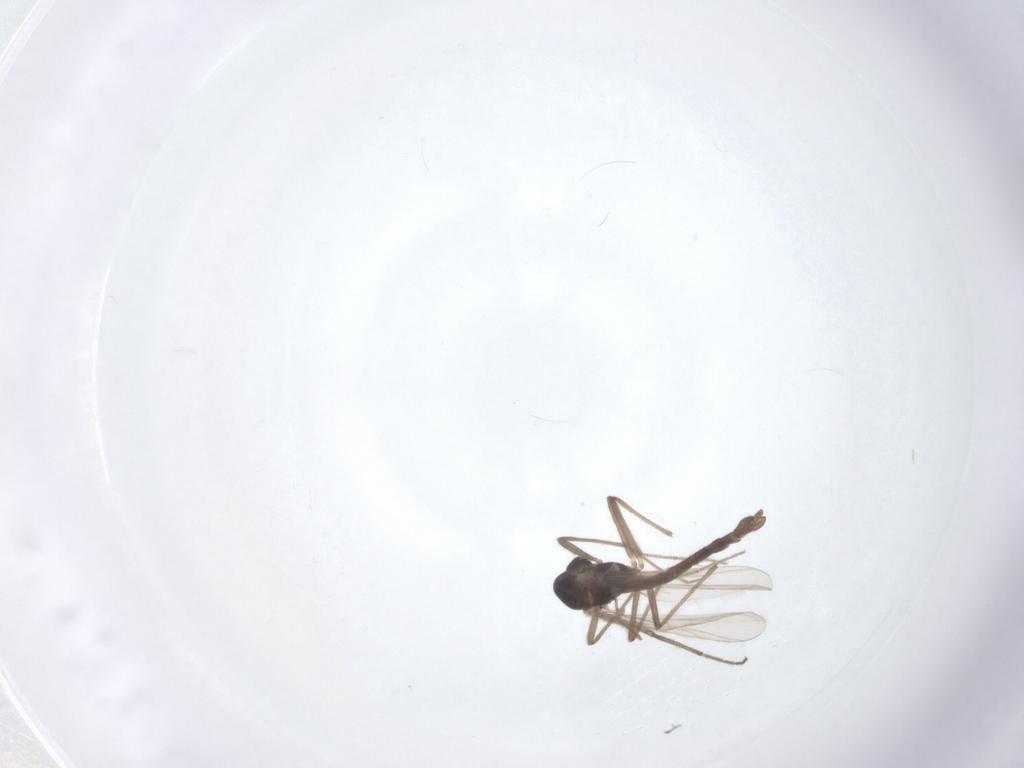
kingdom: Animalia
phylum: Arthropoda
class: Insecta
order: Diptera
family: Chironomidae
